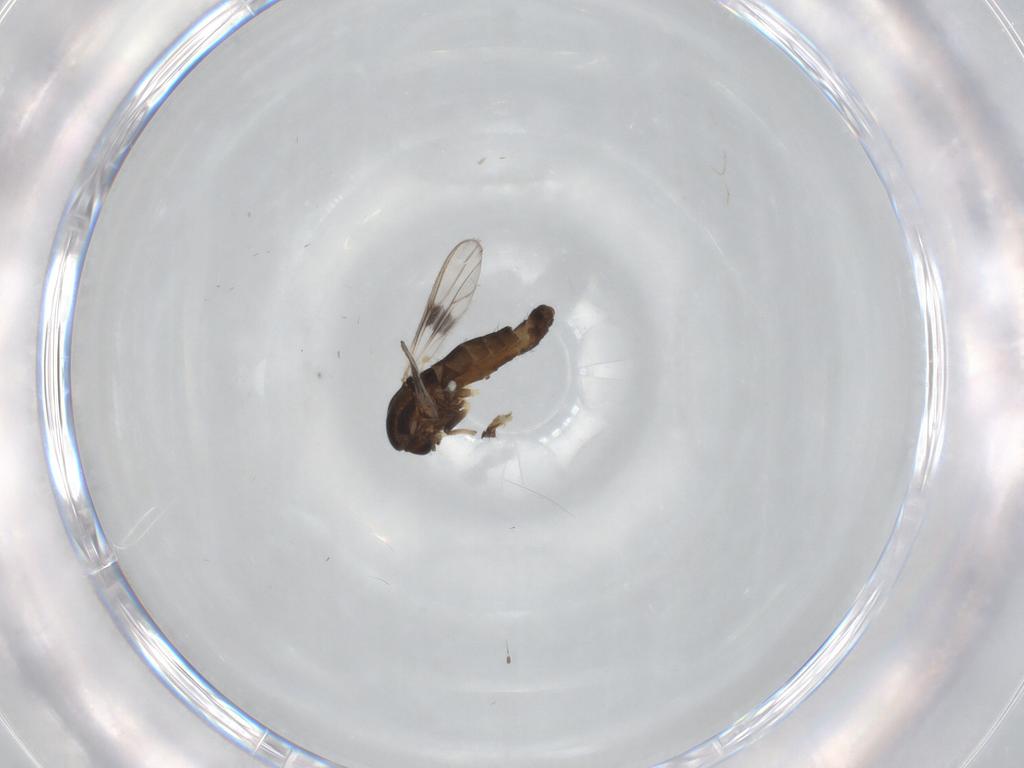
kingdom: Animalia
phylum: Arthropoda
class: Insecta
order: Diptera
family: Chironomidae
